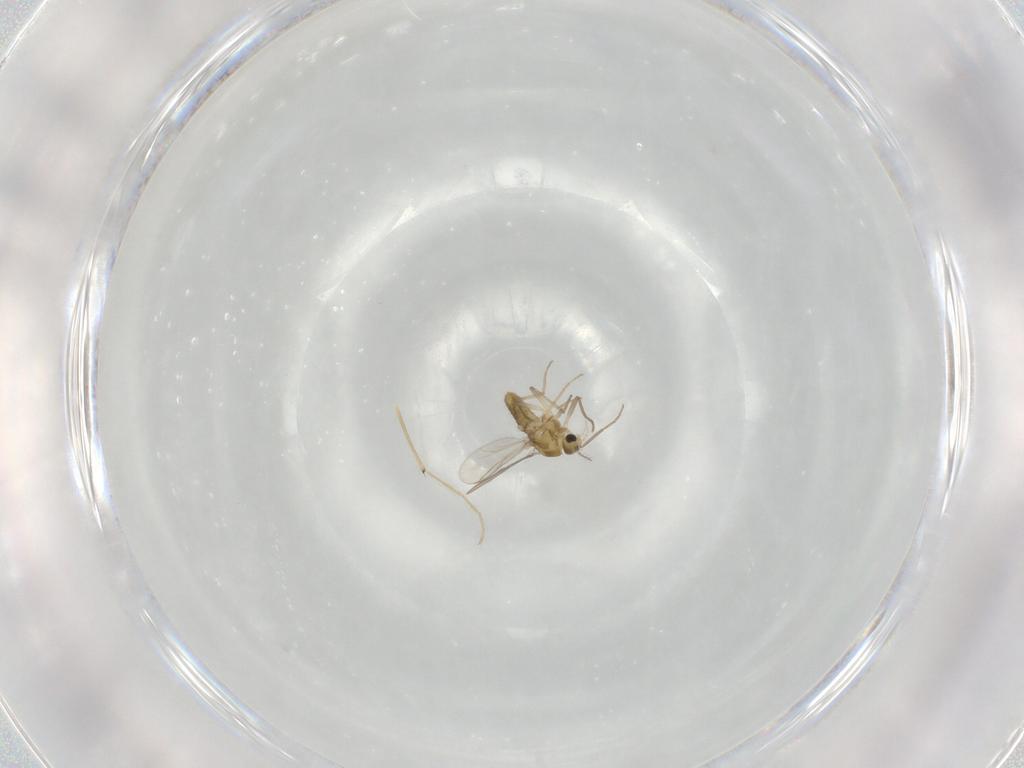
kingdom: Animalia
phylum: Arthropoda
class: Insecta
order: Diptera
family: Chironomidae
